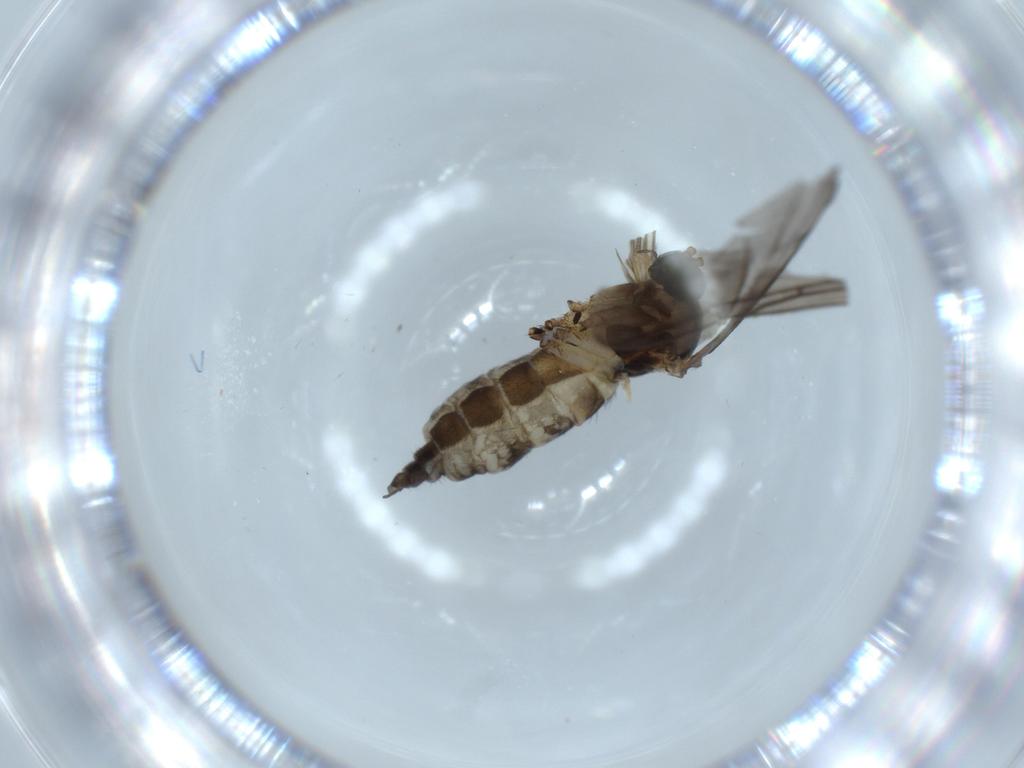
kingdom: Animalia
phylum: Arthropoda
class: Insecta
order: Diptera
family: Sciaridae
